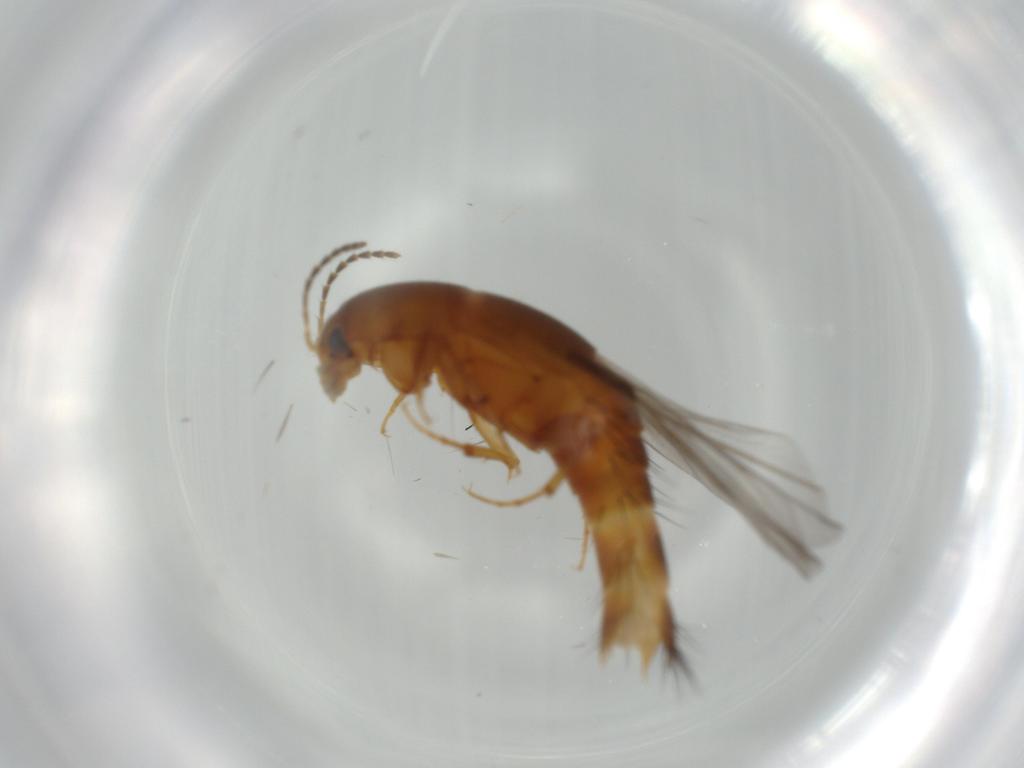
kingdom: Animalia
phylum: Arthropoda
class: Insecta
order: Coleoptera
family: Staphylinidae
